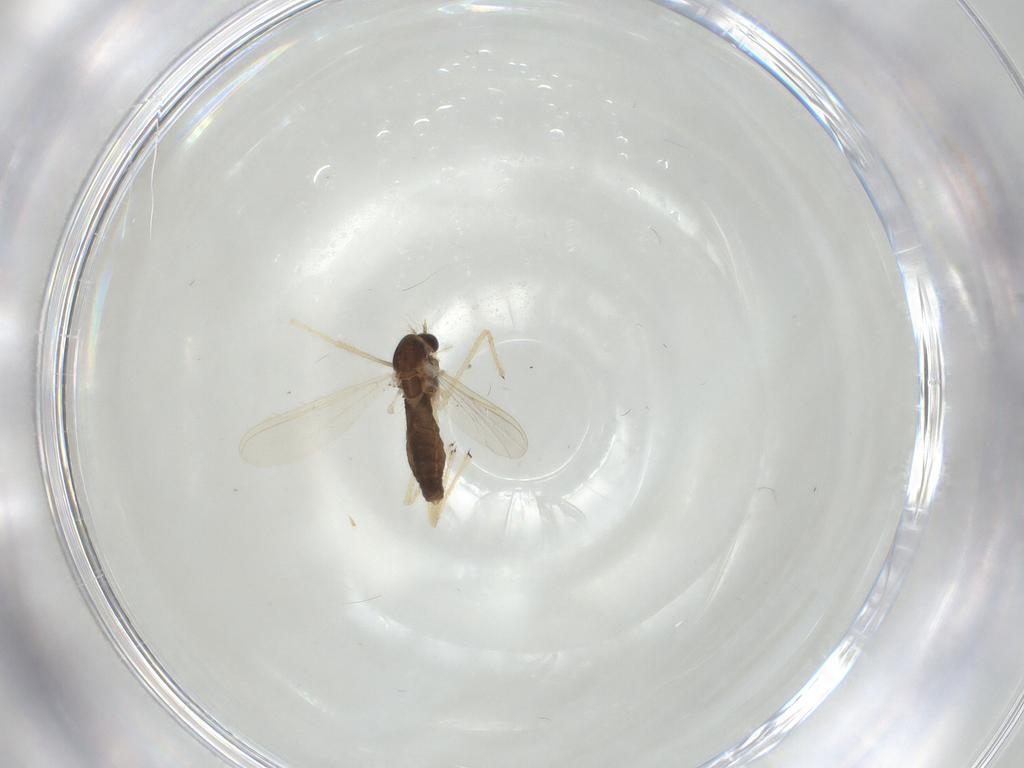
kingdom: Animalia
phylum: Arthropoda
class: Insecta
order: Diptera
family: Chironomidae
